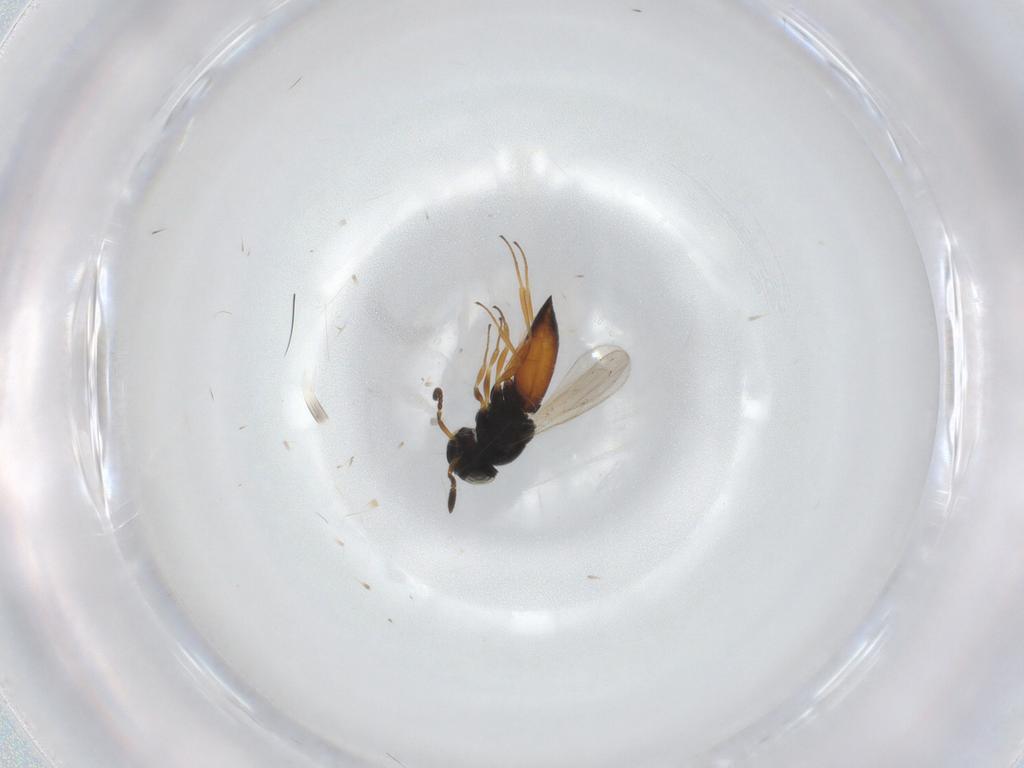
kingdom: Animalia
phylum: Arthropoda
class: Insecta
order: Hymenoptera
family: Scelionidae
